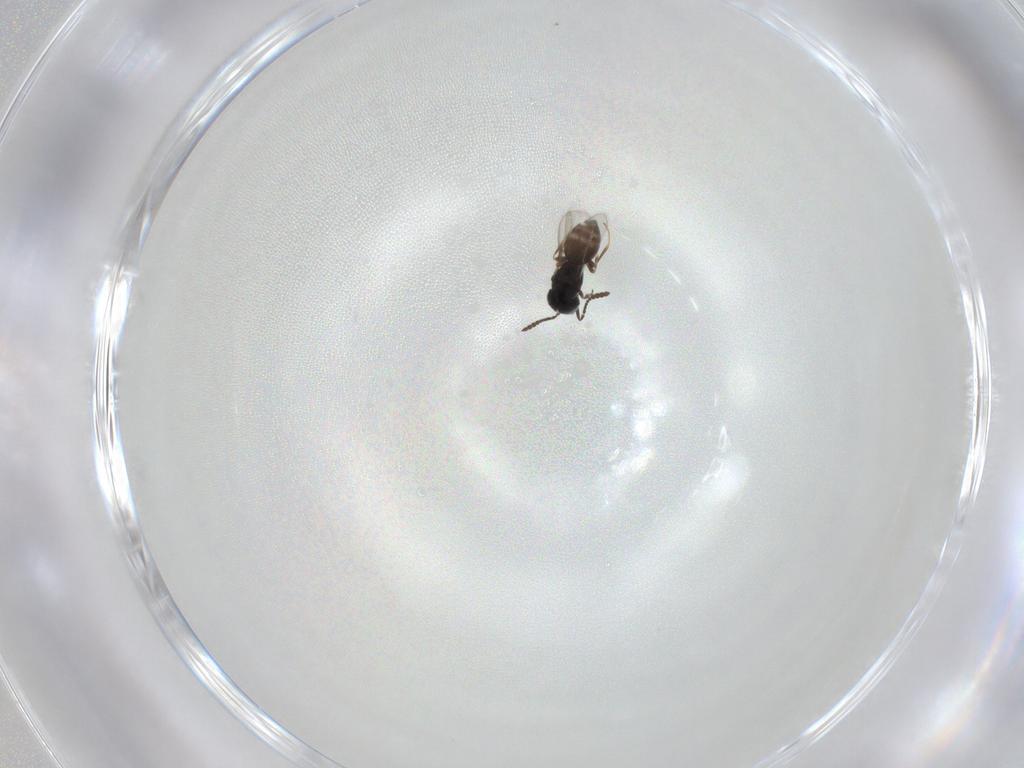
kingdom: Animalia
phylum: Arthropoda
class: Insecta
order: Hymenoptera
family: Scelionidae
